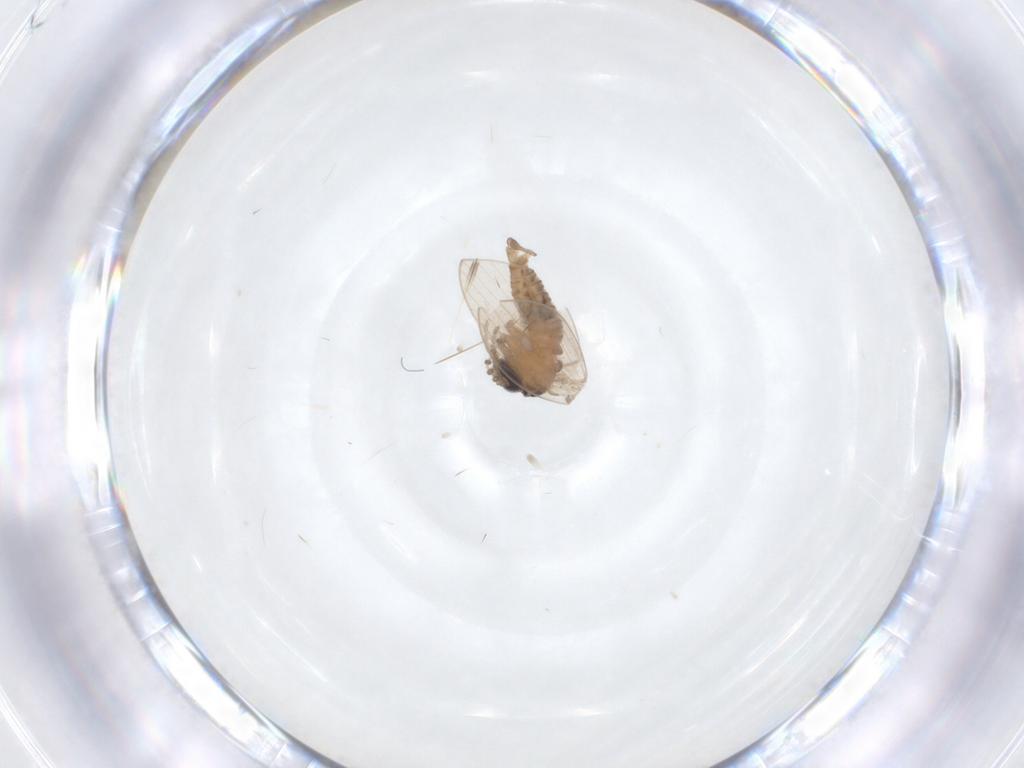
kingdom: Animalia
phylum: Arthropoda
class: Insecta
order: Diptera
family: Psychodidae
